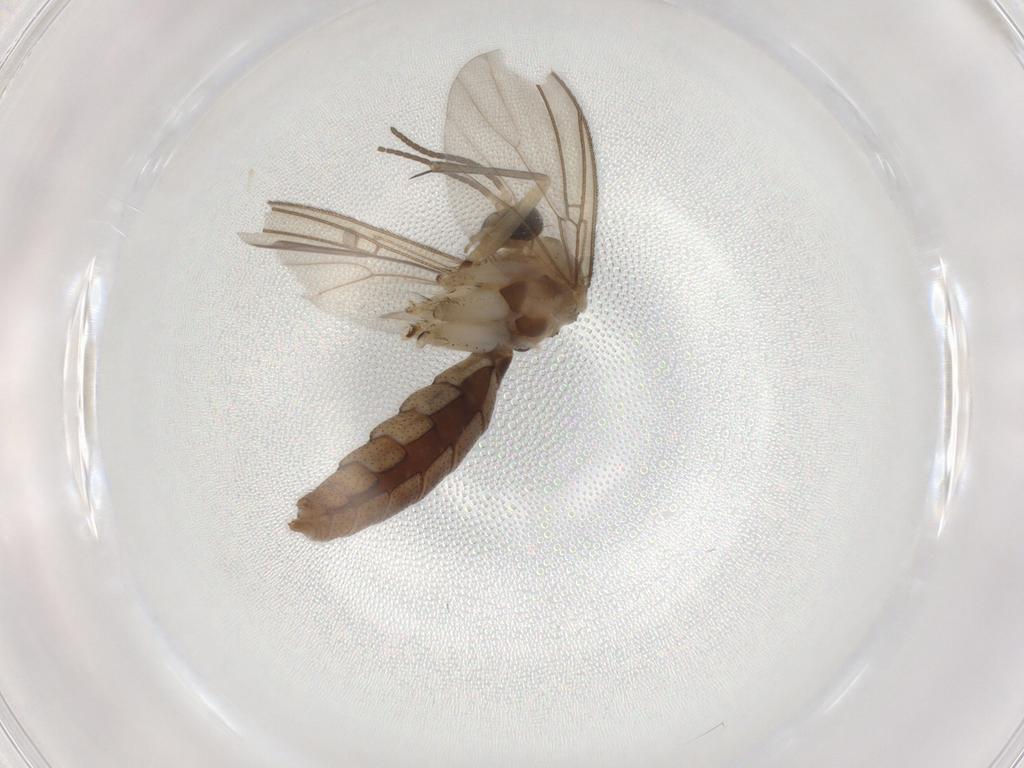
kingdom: Animalia
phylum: Arthropoda
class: Insecta
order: Diptera
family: Mycetophilidae
